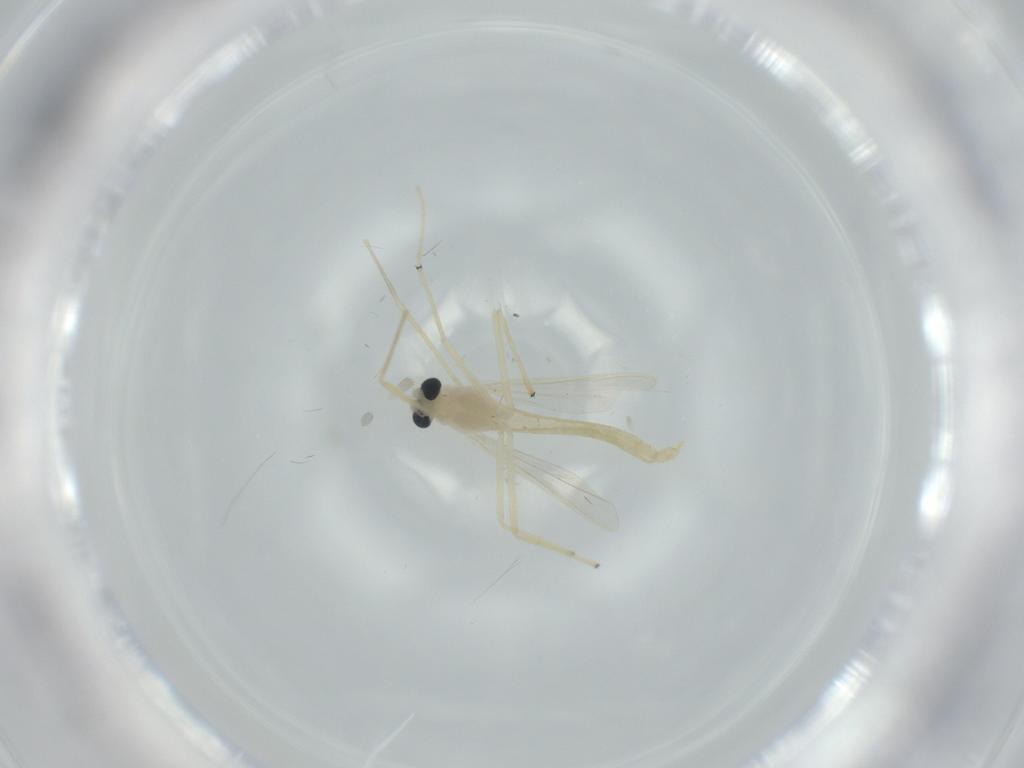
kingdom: Animalia
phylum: Arthropoda
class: Insecta
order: Diptera
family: Chironomidae
